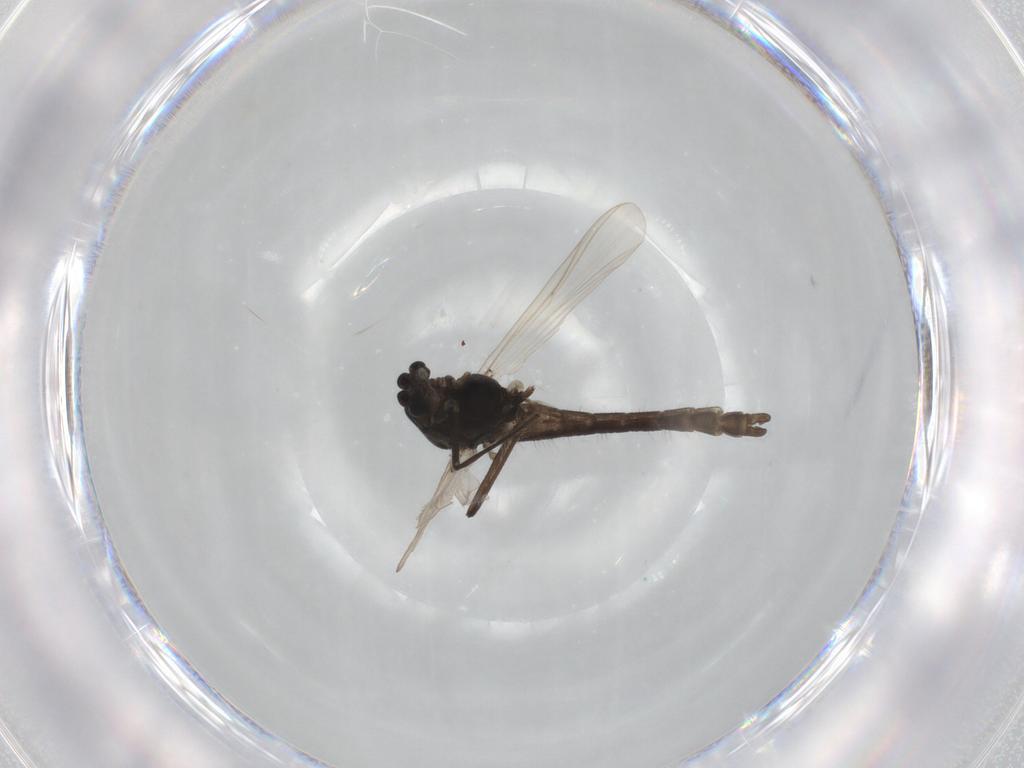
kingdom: Animalia
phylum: Arthropoda
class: Insecta
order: Diptera
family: Chironomidae
